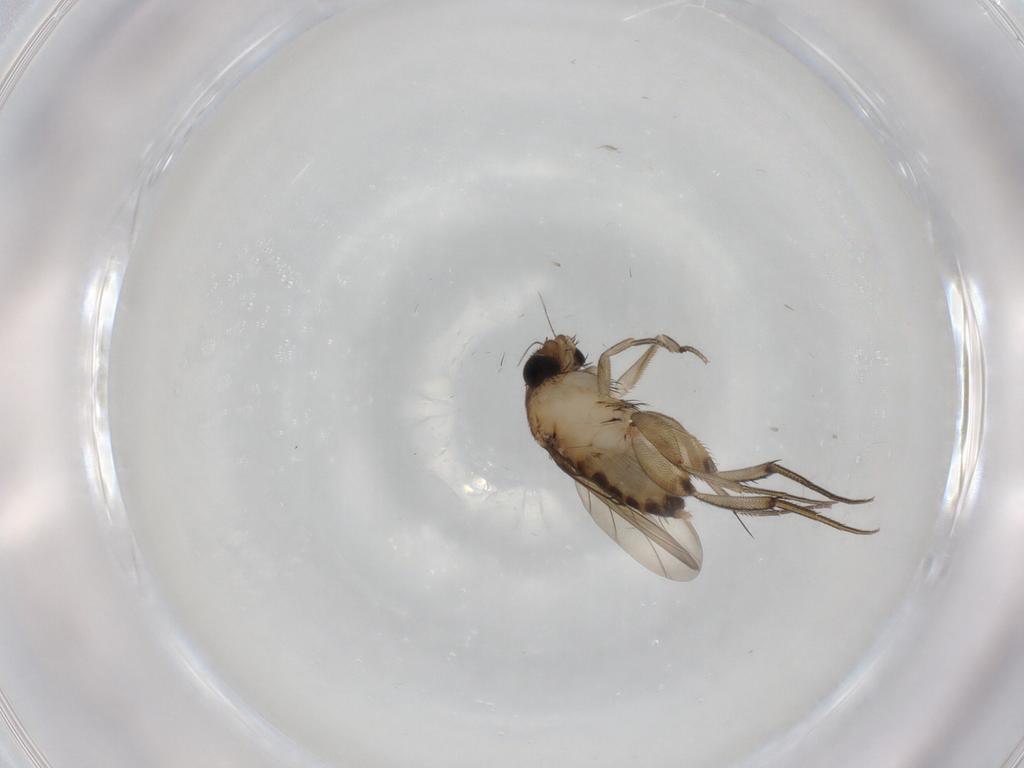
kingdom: Animalia
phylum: Arthropoda
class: Insecta
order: Diptera
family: Phoridae
